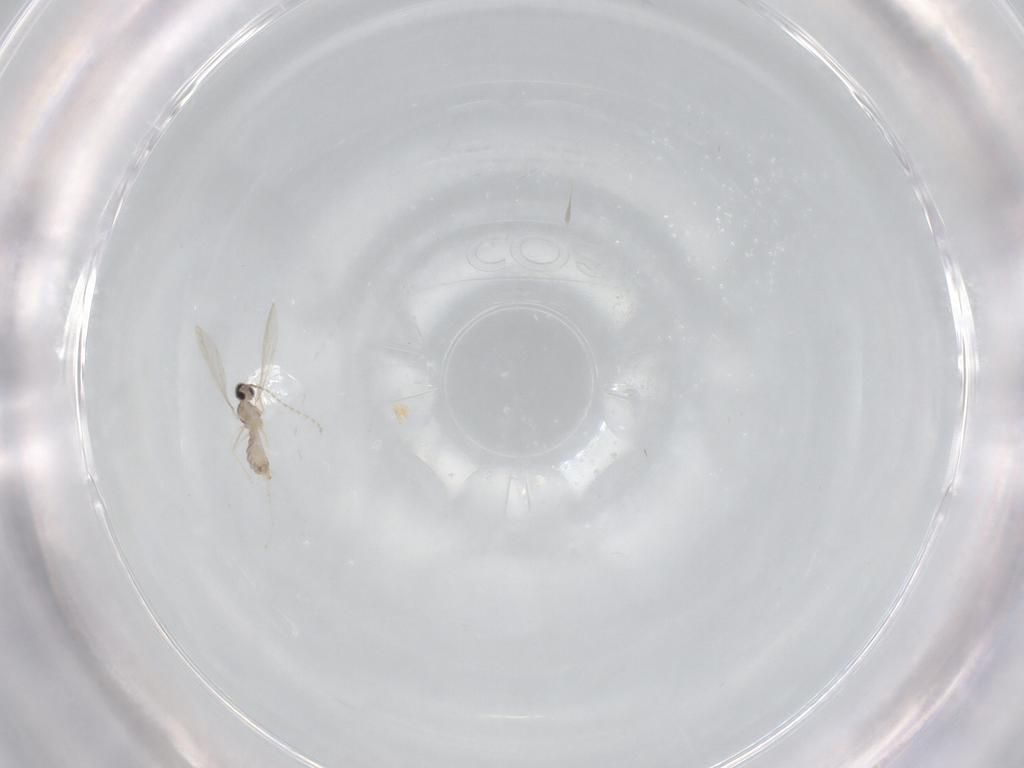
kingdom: Animalia
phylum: Arthropoda
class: Insecta
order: Diptera
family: Cecidomyiidae
